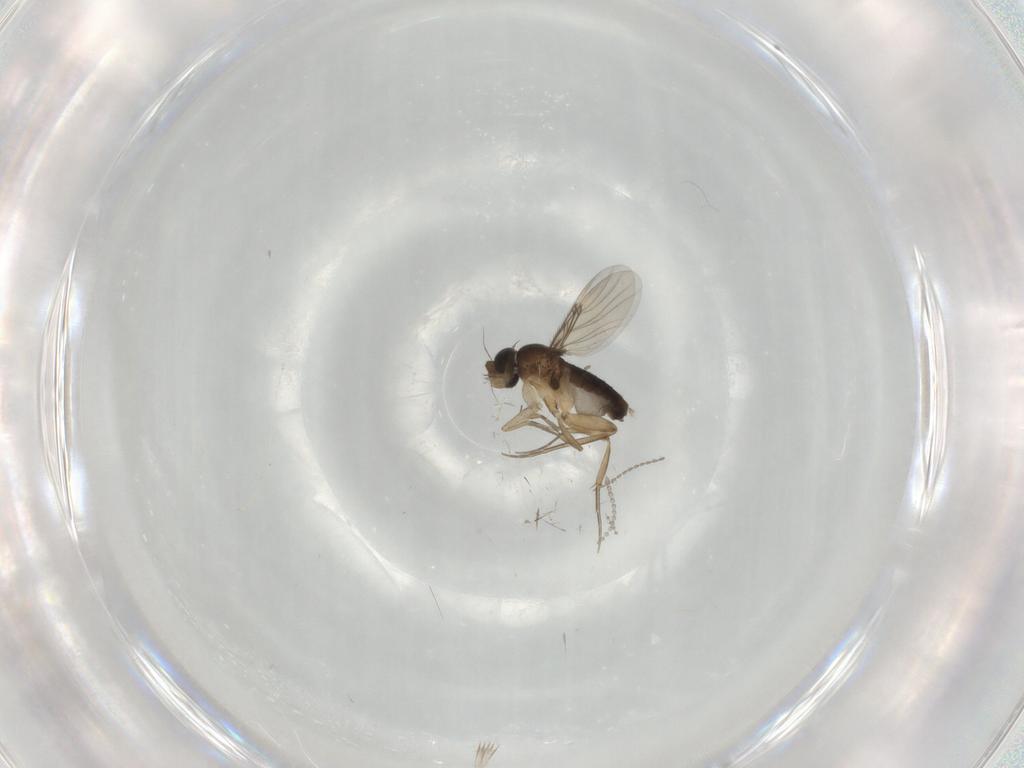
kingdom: Animalia
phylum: Arthropoda
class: Insecta
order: Diptera
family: Sciaridae
